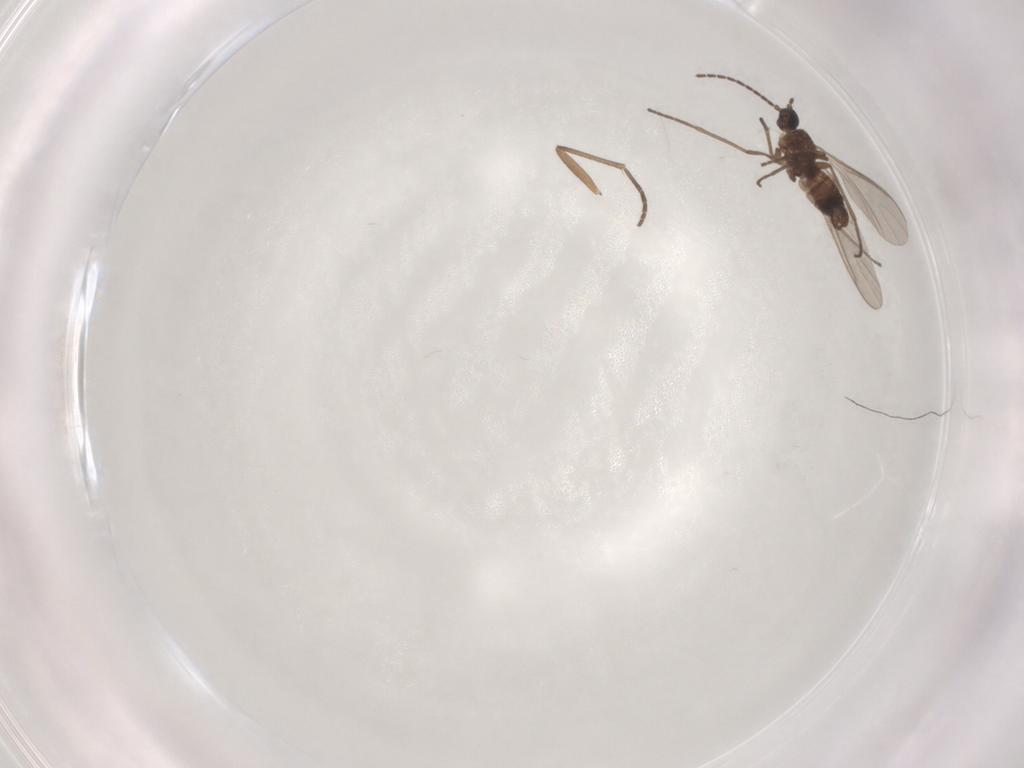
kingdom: Animalia
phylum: Arthropoda
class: Insecta
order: Diptera
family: Sciaridae
